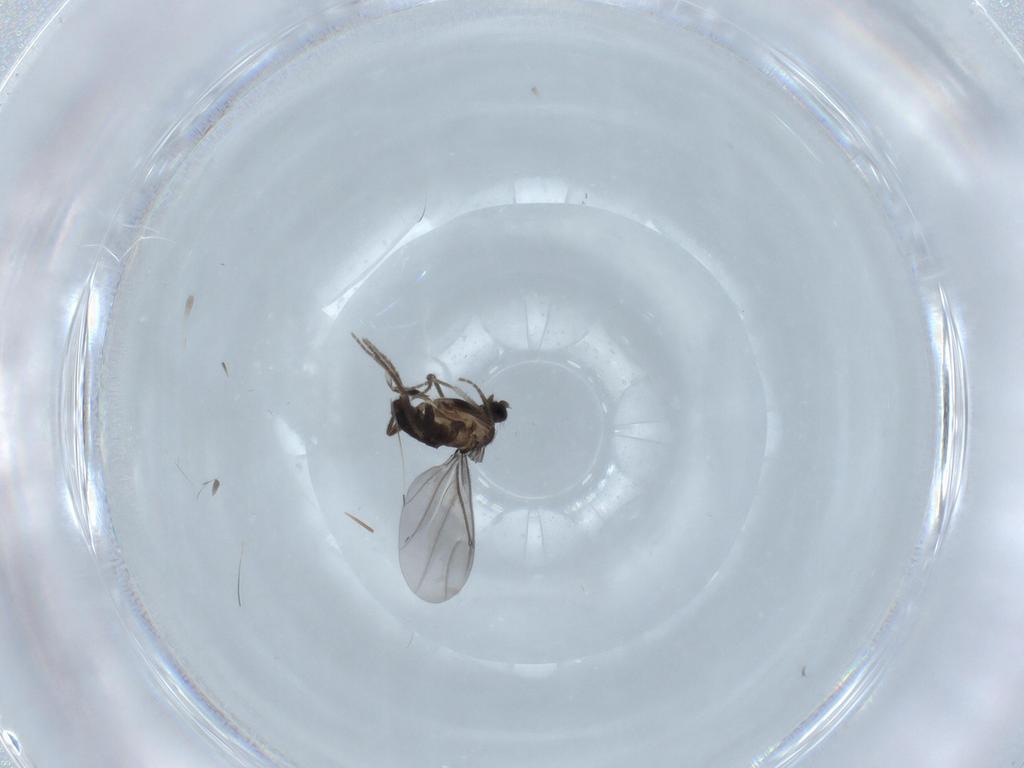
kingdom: Animalia
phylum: Arthropoda
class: Insecta
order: Diptera
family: Phoridae
